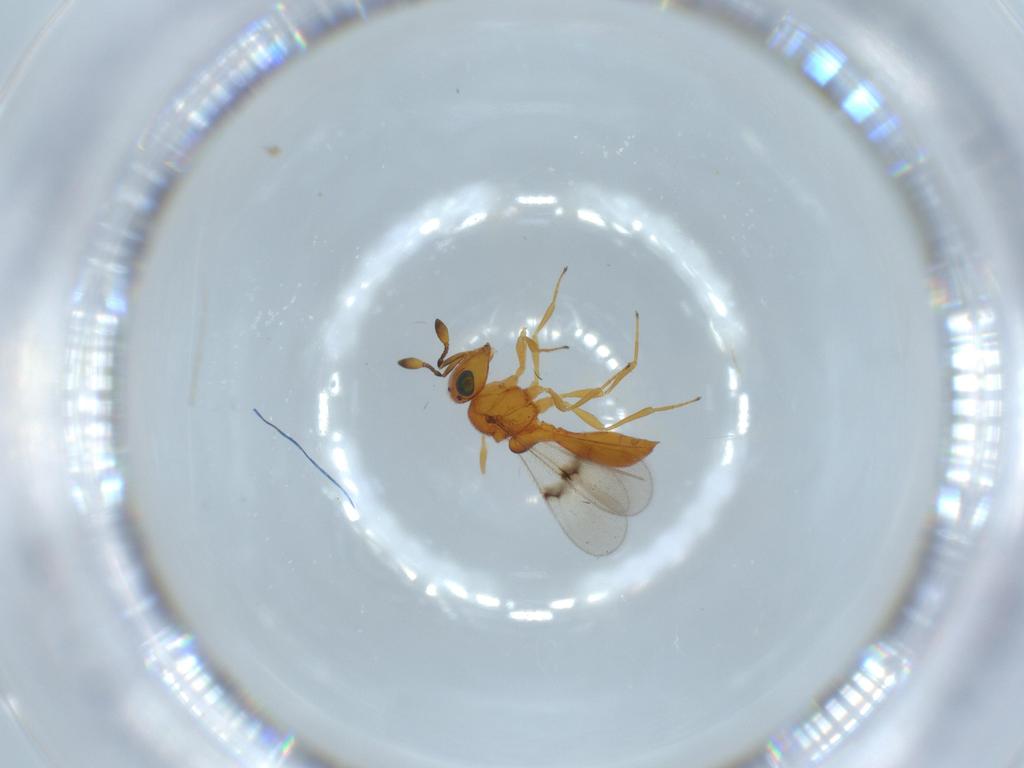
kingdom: Animalia
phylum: Arthropoda
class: Insecta
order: Hymenoptera
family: Scelionidae
